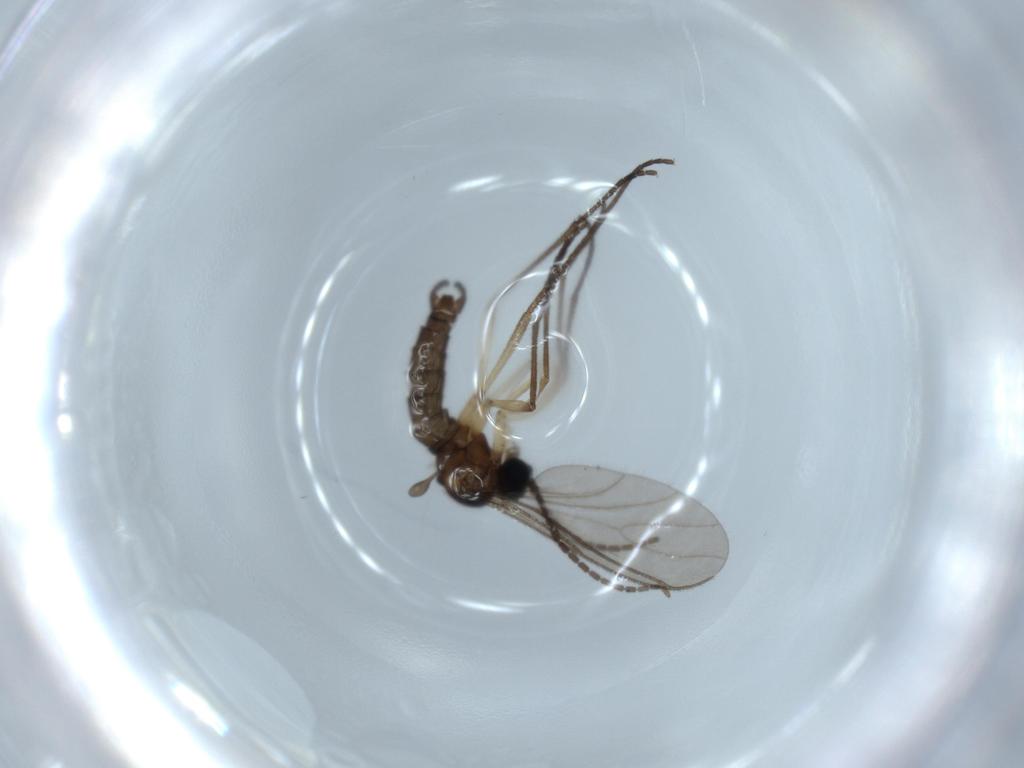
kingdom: Animalia
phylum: Arthropoda
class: Insecta
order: Diptera
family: Sciaridae
